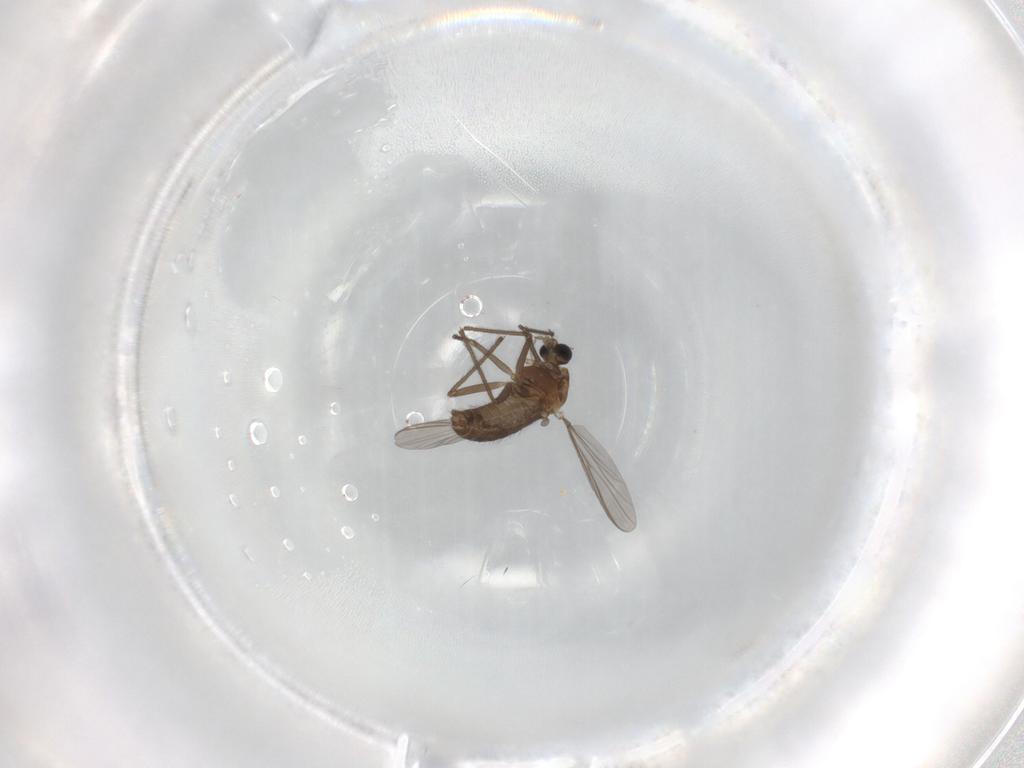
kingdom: Animalia
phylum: Arthropoda
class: Insecta
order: Diptera
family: Chironomidae
